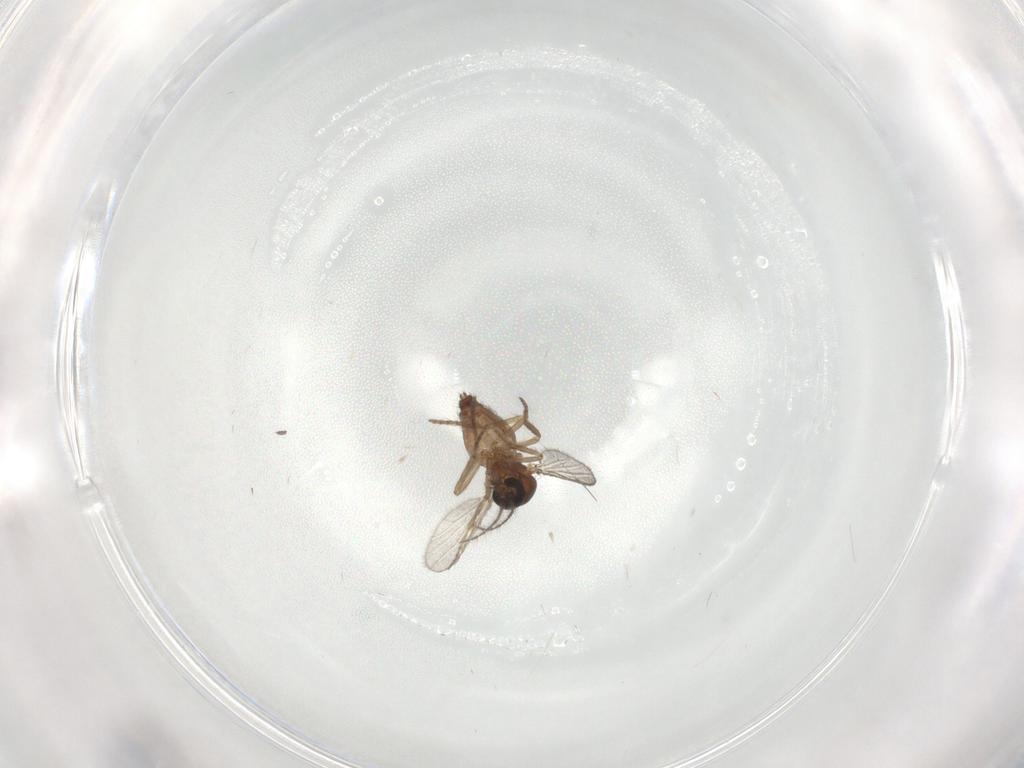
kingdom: Animalia
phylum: Arthropoda
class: Insecta
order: Diptera
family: Ceratopogonidae
